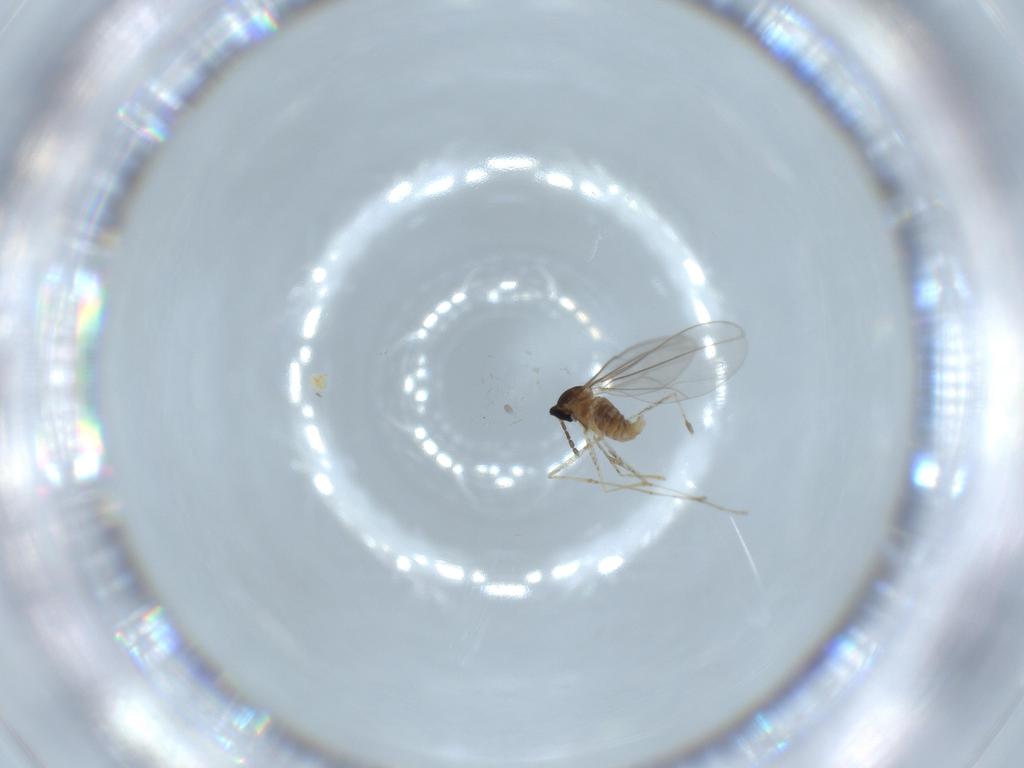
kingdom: Animalia
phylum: Arthropoda
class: Insecta
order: Diptera
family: Cecidomyiidae
